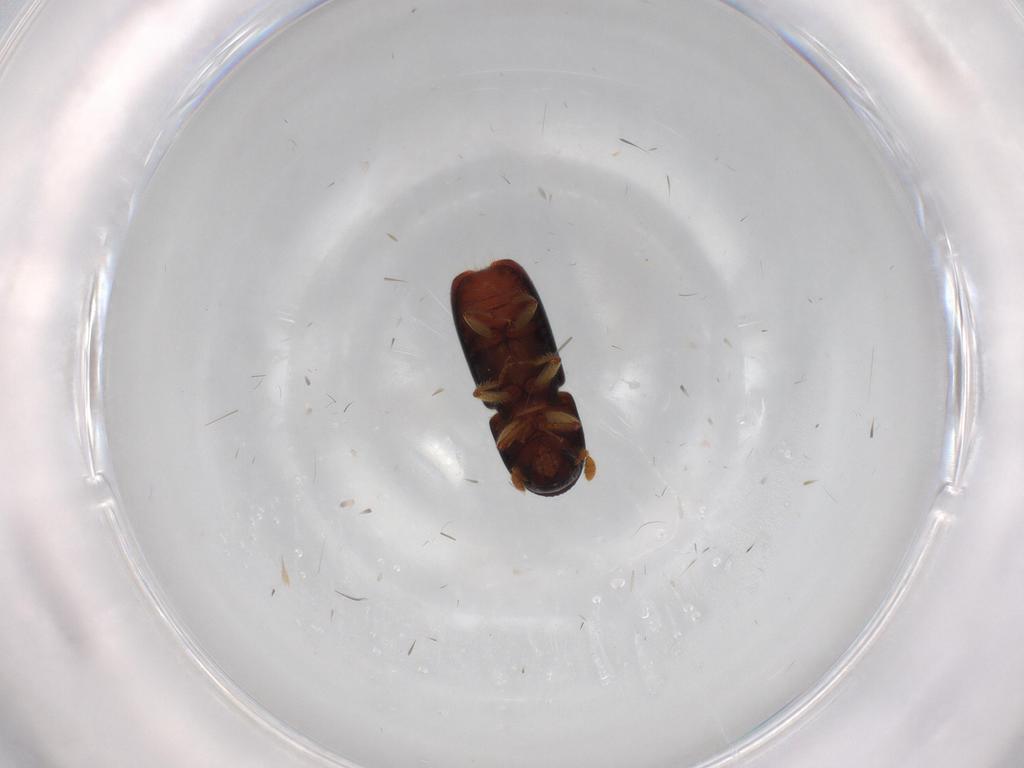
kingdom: Animalia
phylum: Arthropoda
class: Insecta
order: Coleoptera
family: Curculionidae
